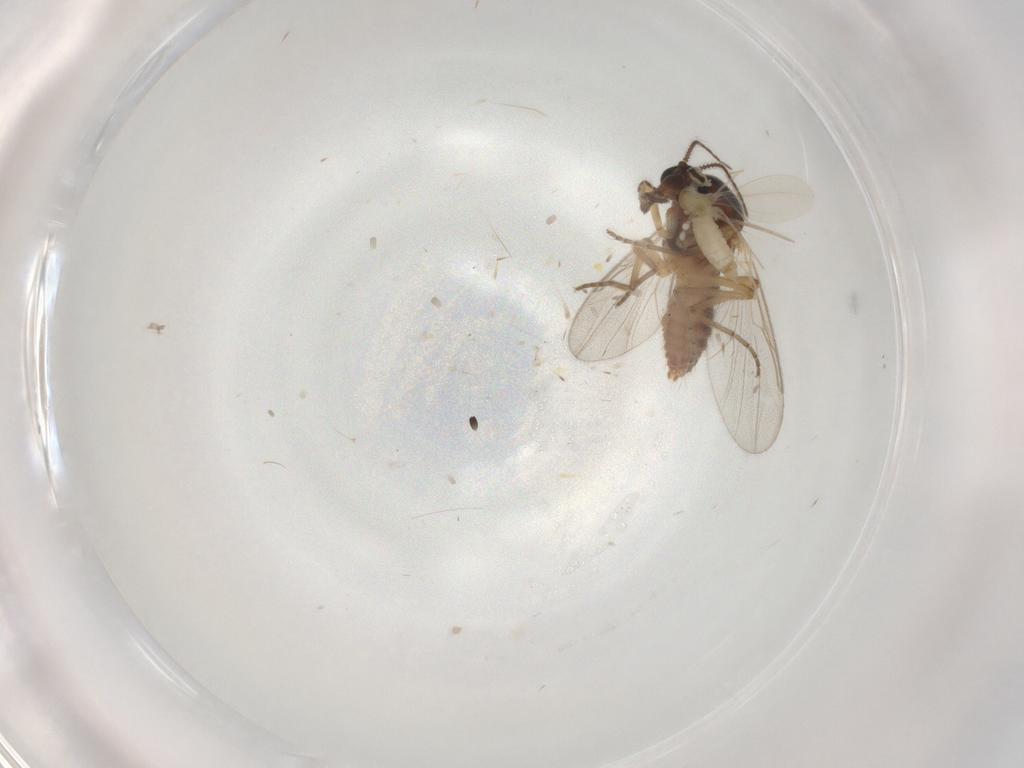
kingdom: Animalia
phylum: Arthropoda
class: Insecta
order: Diptera
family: Ceratopogonidae
